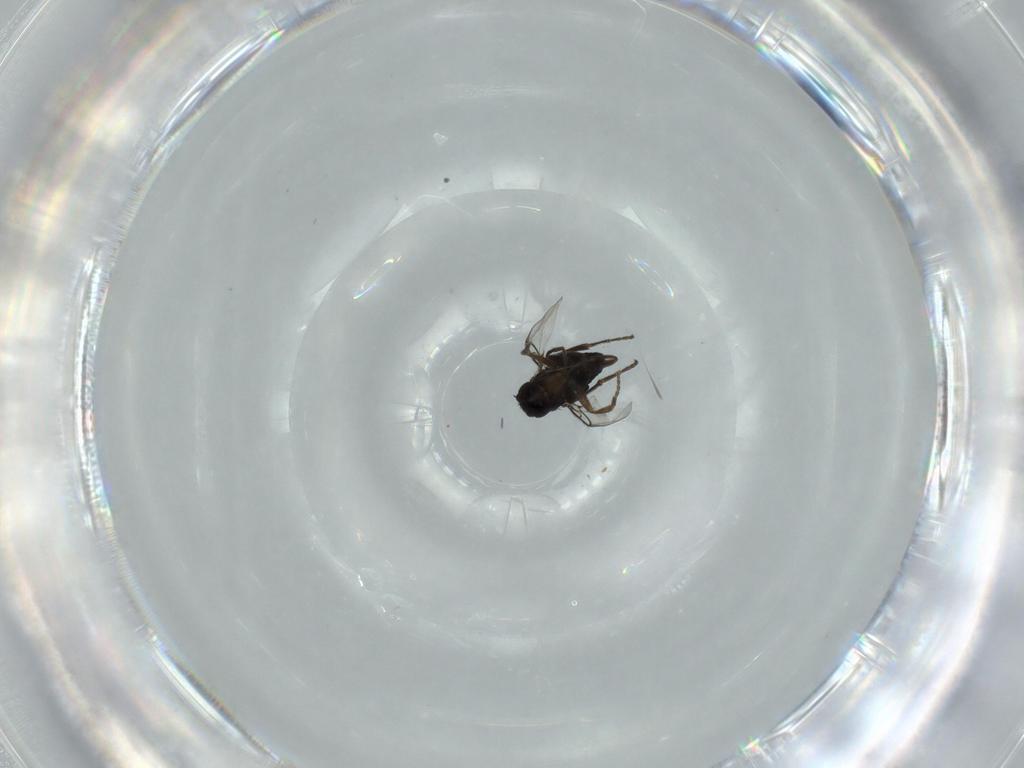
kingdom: Animalia
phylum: Arthropoda
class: Insecta
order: Diptera
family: Phoridae
